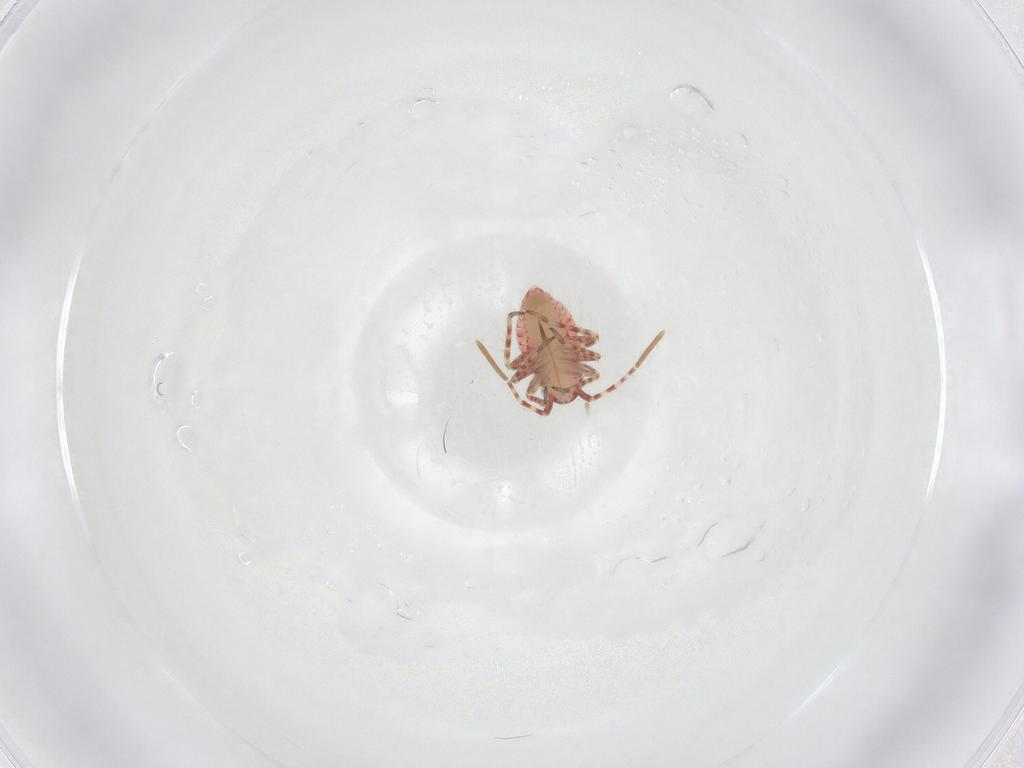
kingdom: Animalia
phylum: Arthropoda
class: Insecta
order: Hemiptera
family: Miridae
